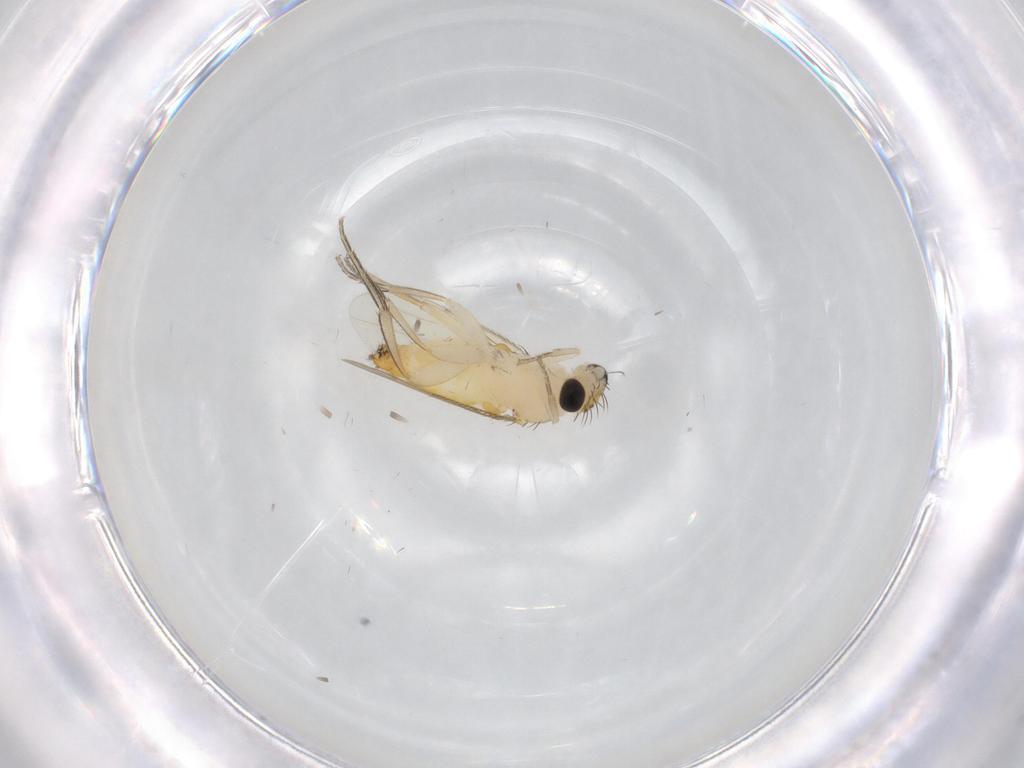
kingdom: Animalia
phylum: Arthropoda
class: Insecta
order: Diptera
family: Phoridae
